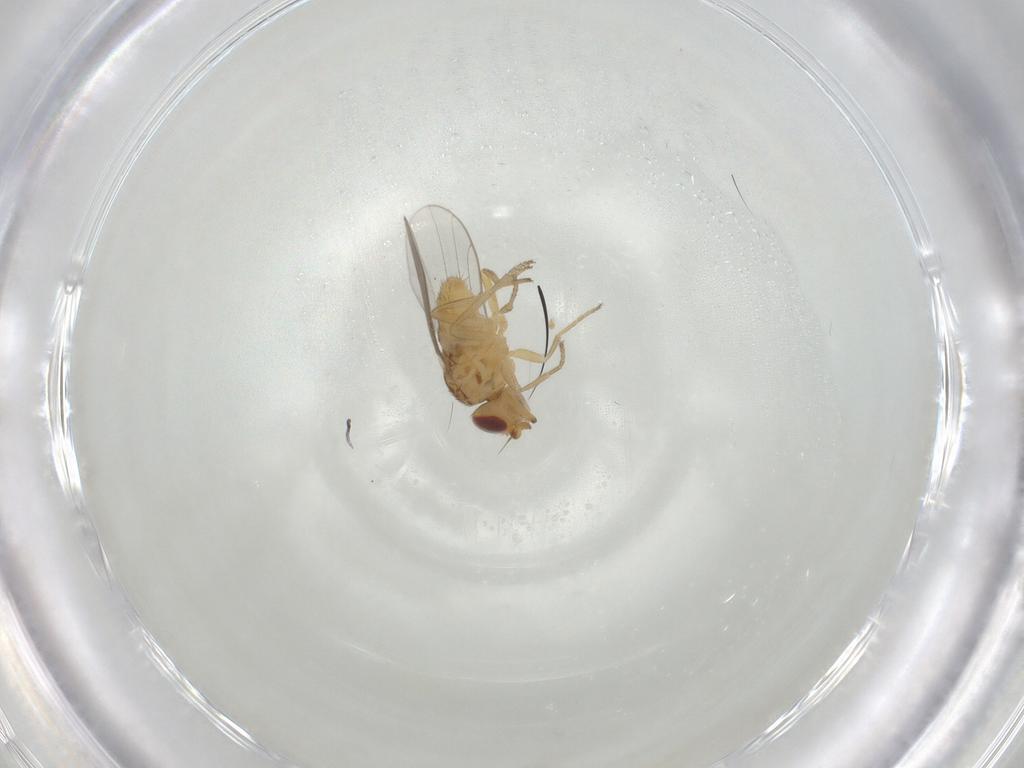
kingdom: Animalia
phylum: Arthropoda
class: Insecta
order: Diptera
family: Chloropidae
